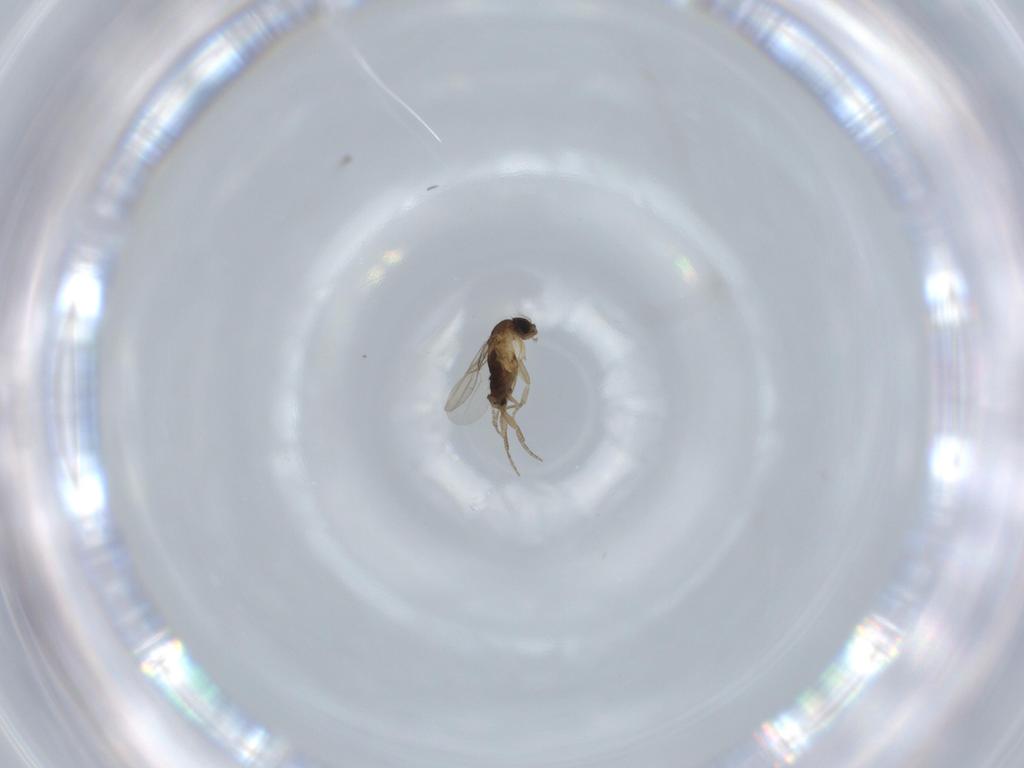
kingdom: Animalia
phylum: Arthropoda
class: Insecta
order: Diptera
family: Phoridae
